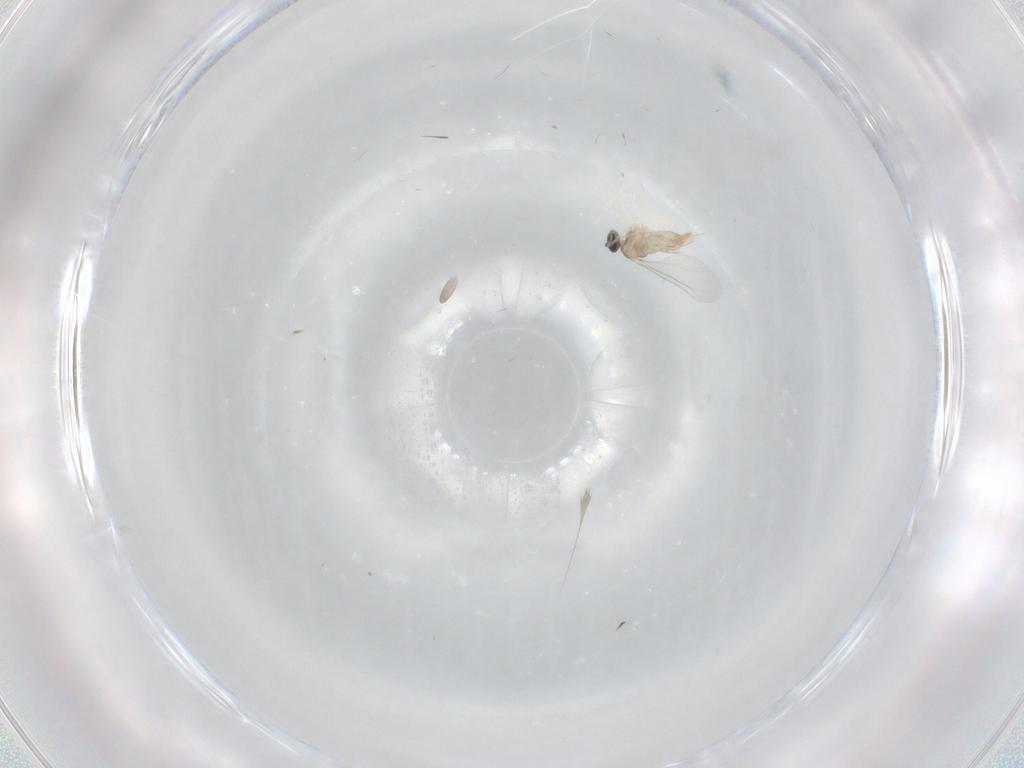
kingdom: Animalia
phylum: Arthropoda
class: Insecta
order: Diptera
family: Cecidomyiidae
